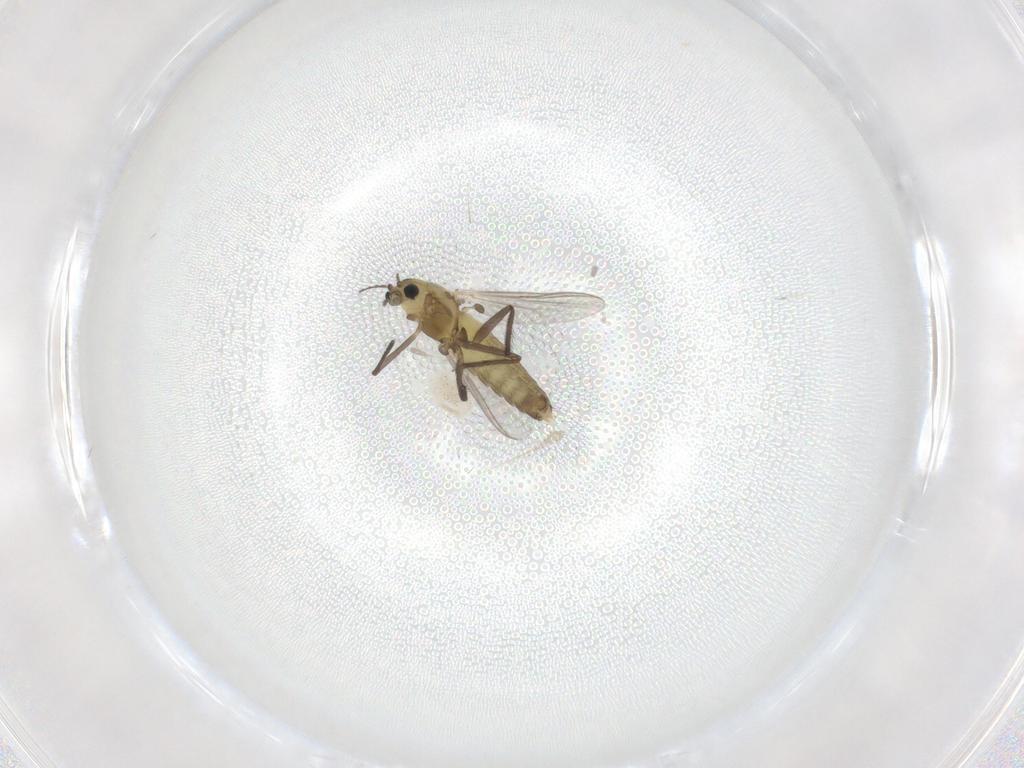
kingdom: Animalia
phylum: Arthropoda
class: Insecta
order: Diptera
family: Chironomidae
